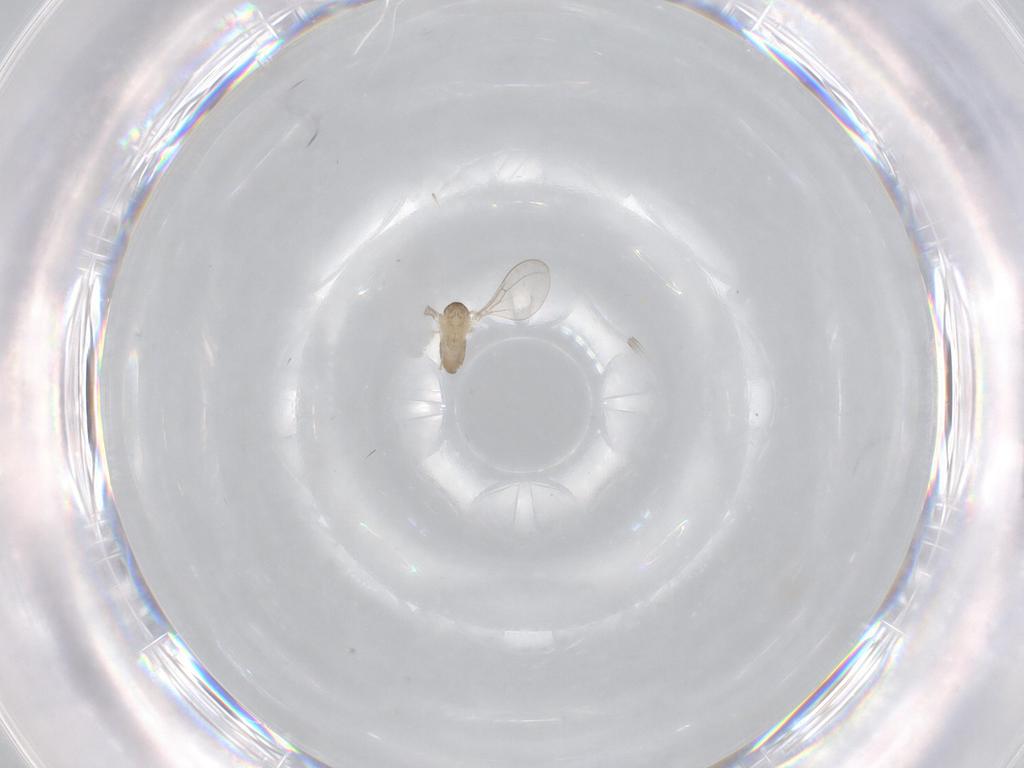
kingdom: Animalia
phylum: Arthropoda
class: Insecta
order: Diptera
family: Cecidomyiidae
